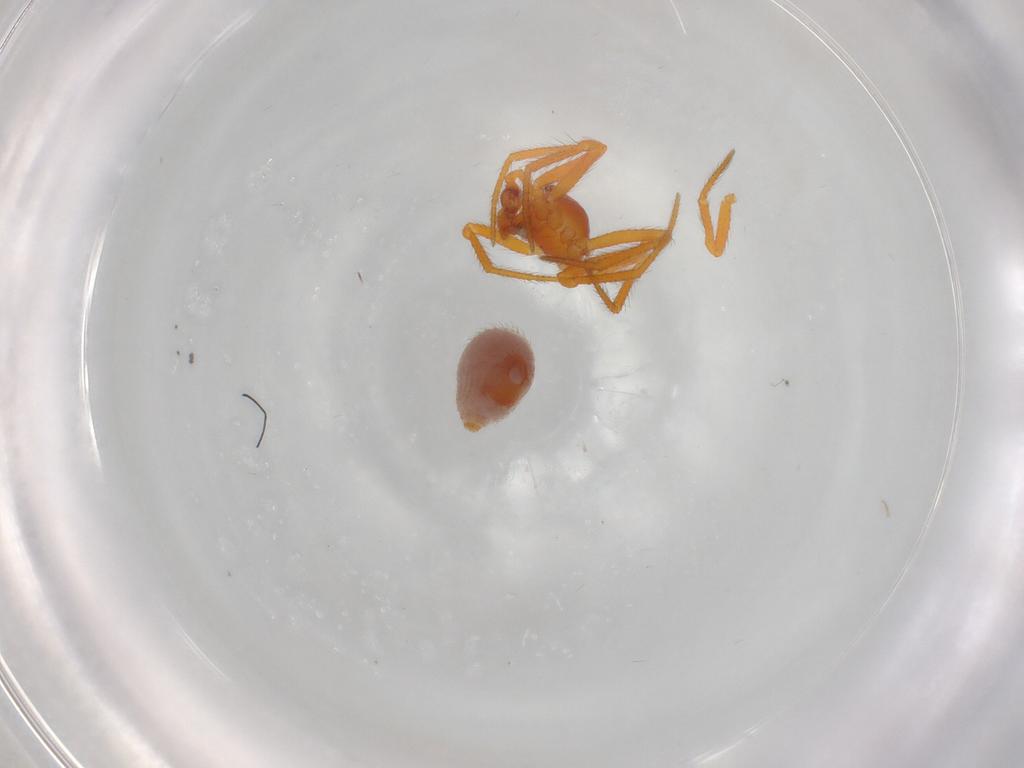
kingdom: Animalia
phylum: Arthropoda
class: Arachnida
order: Araneae
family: Theridiidae
